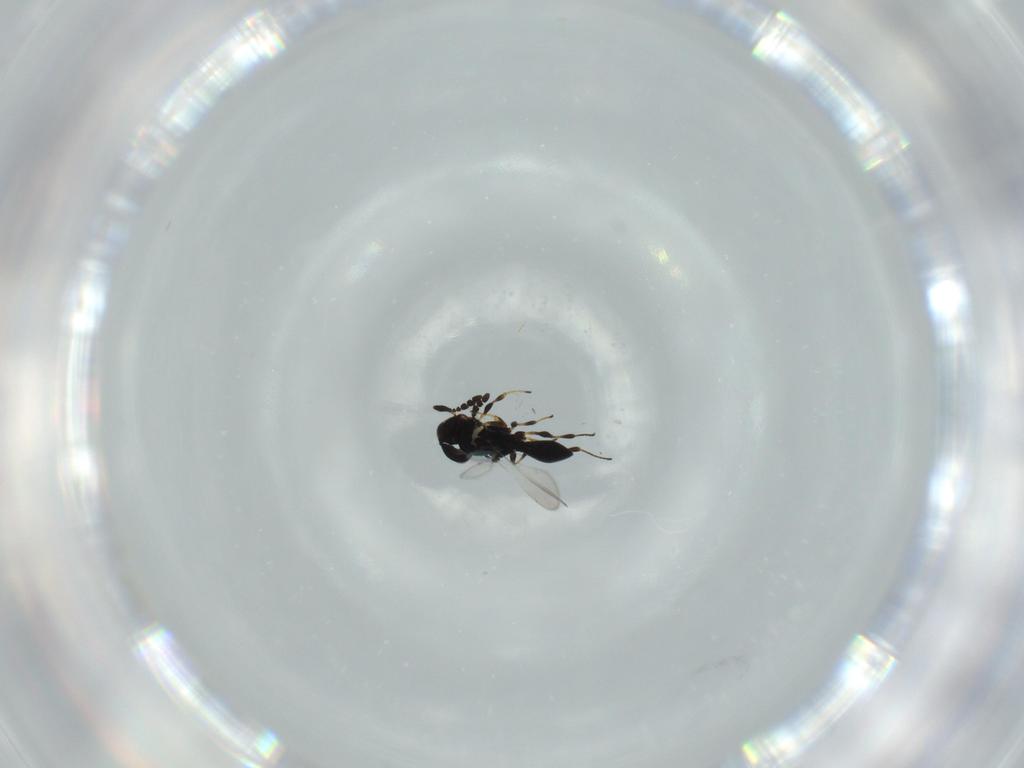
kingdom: Animalia
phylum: Arthropoda
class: Insecta
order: Hymenoptera
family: Platygastridae
